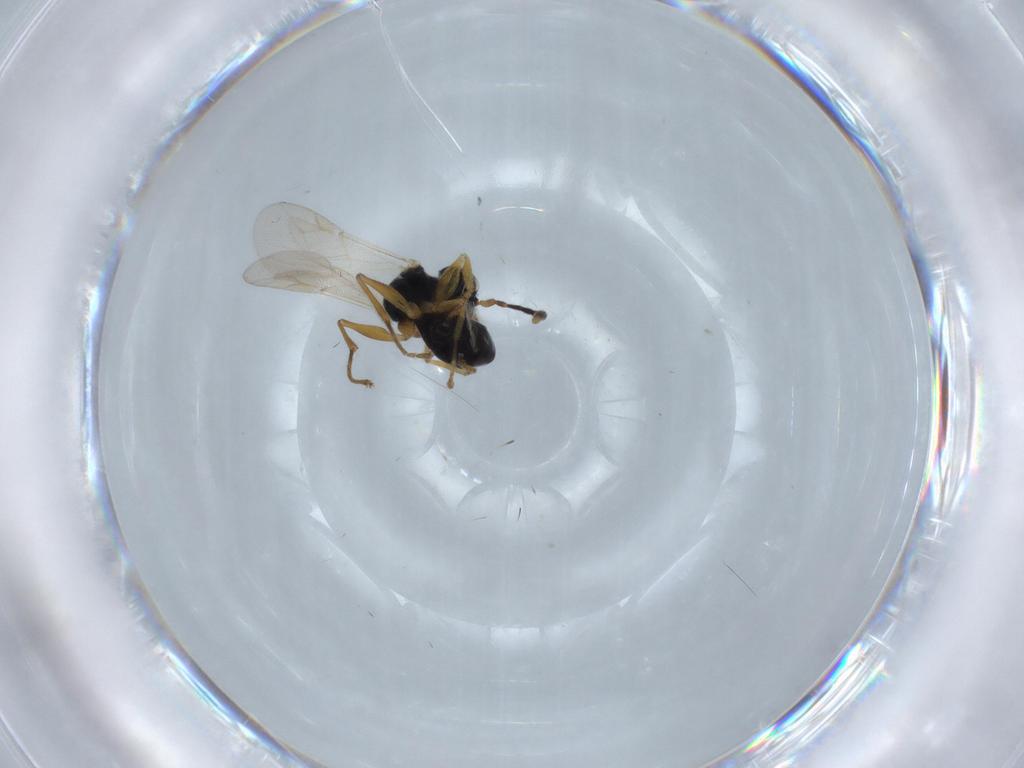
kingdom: Animalia
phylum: Arthropoda
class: Insecta
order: Hymenoptera
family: Dryinidae
